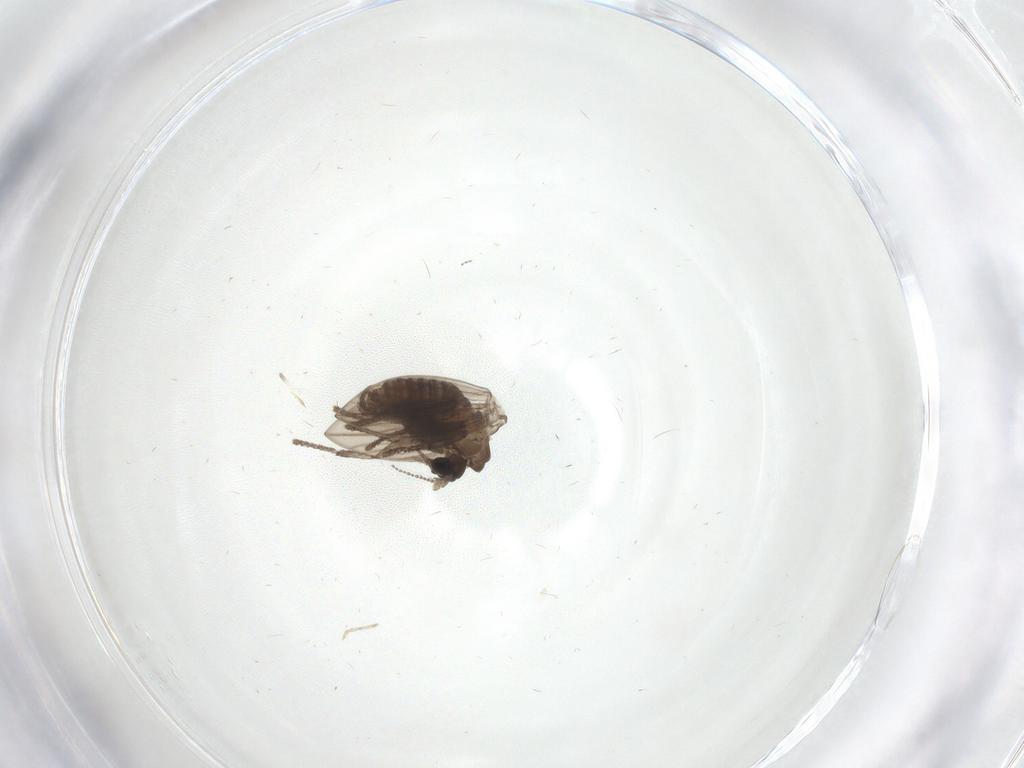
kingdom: Animalia
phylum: Arthropoda
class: Insecta
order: Diptera
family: Psychodidae
